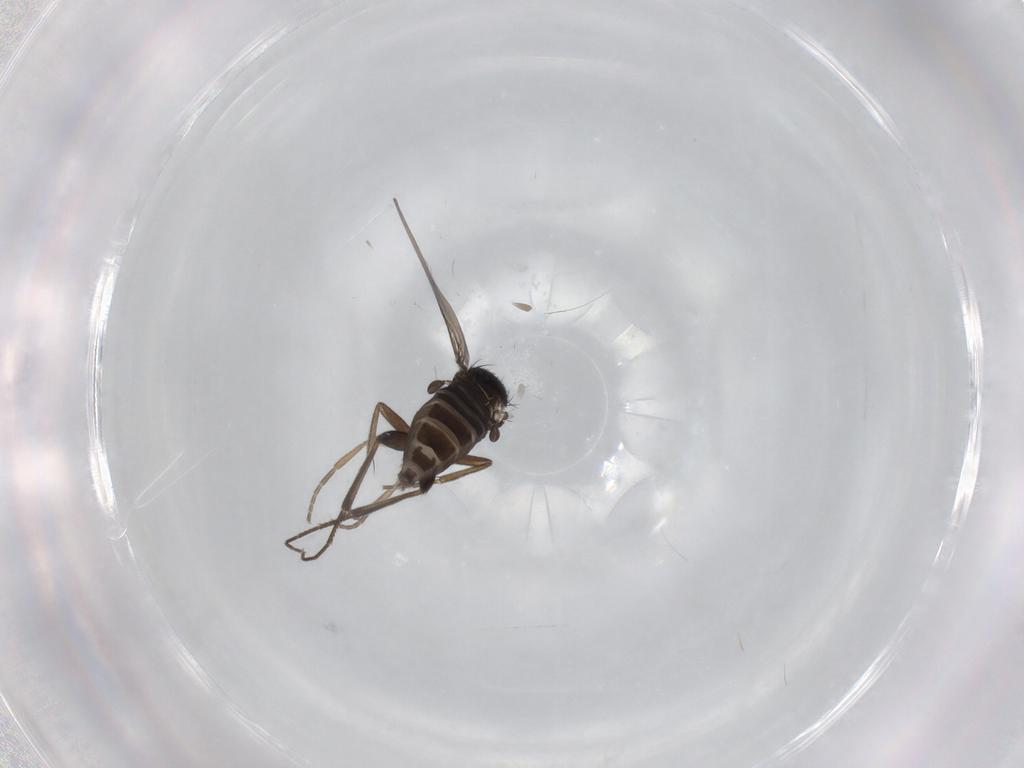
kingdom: Animalia
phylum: Arthropoda
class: Insecta
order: Diptera
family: Phoridae
